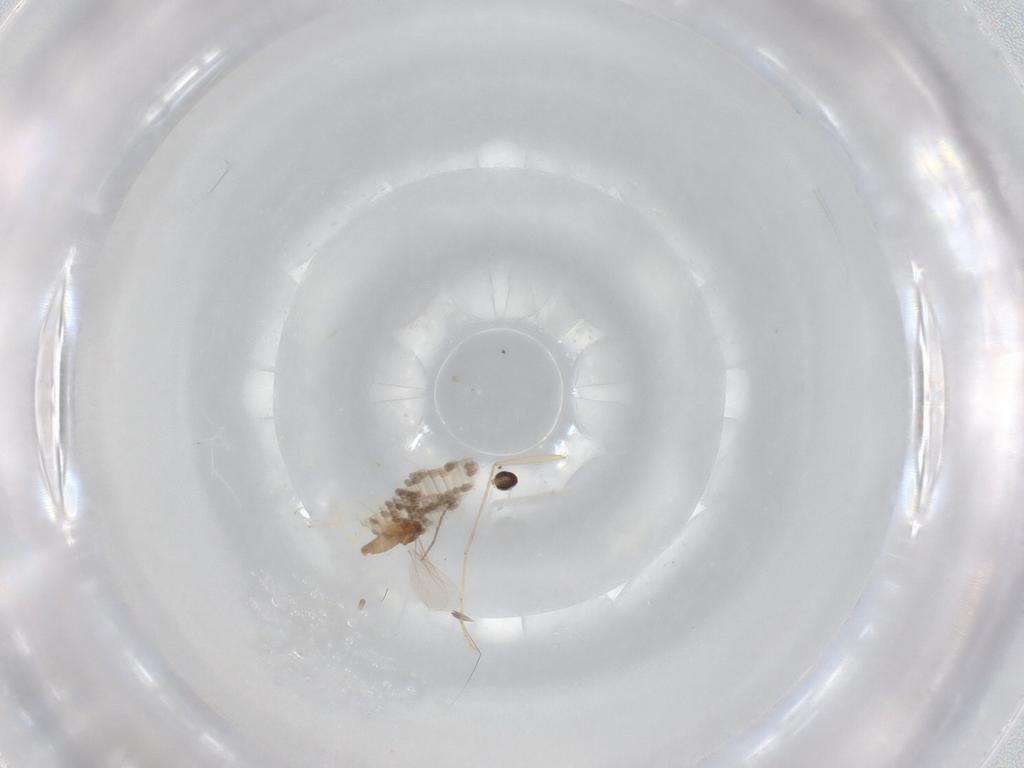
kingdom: Animalia
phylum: Arthropoda
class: Insecta
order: Diptera
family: Cecidomyiidae
